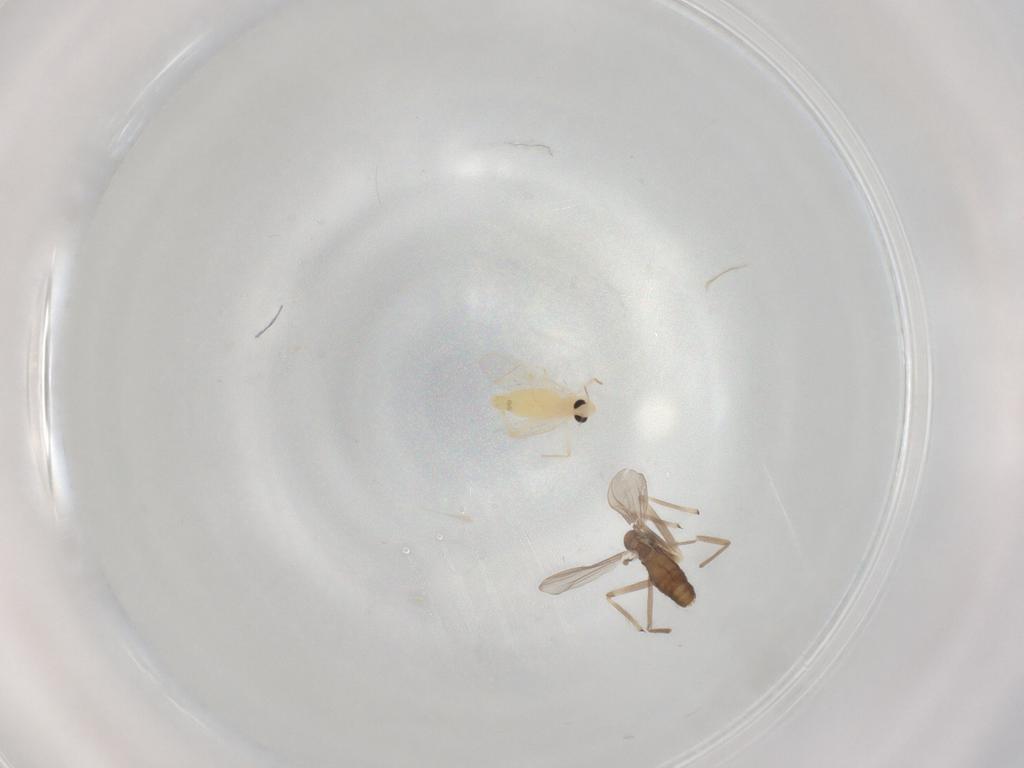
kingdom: Animalia
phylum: Arthropoda
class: Insecta
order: Diptera
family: Chironomidae
